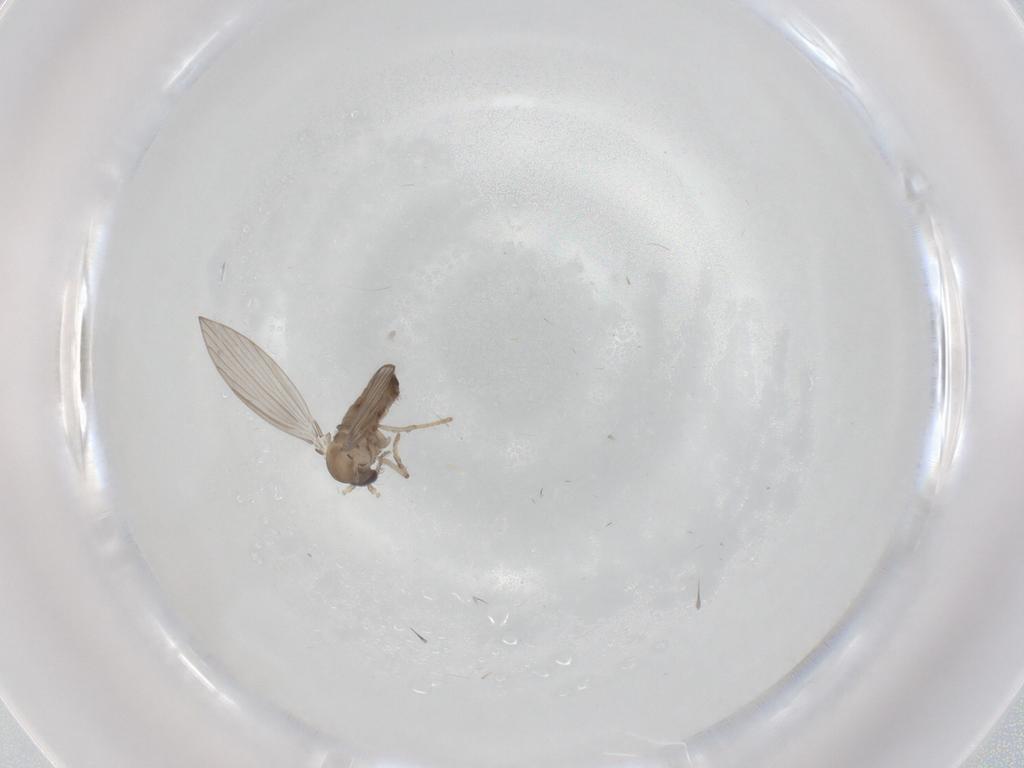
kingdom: Animalia
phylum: Arthropoda
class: Insecta
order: Diptera
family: Psychodidae
